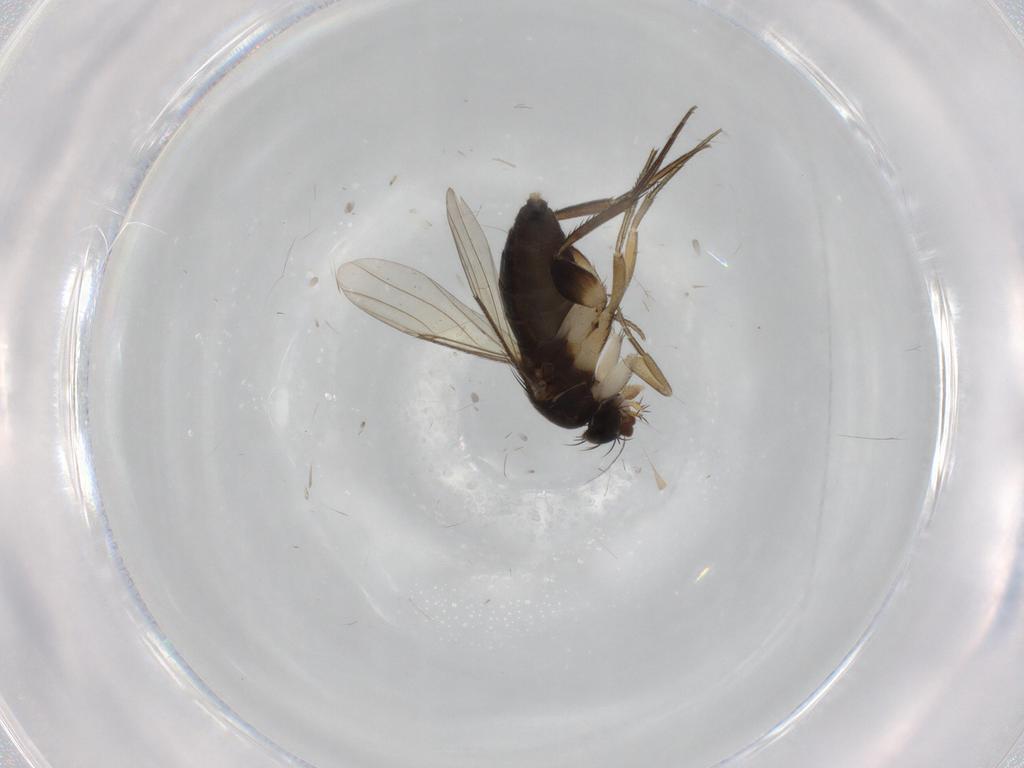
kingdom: Animalia
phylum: Arthropoda
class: Insecta
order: Diptera
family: Phoridae
